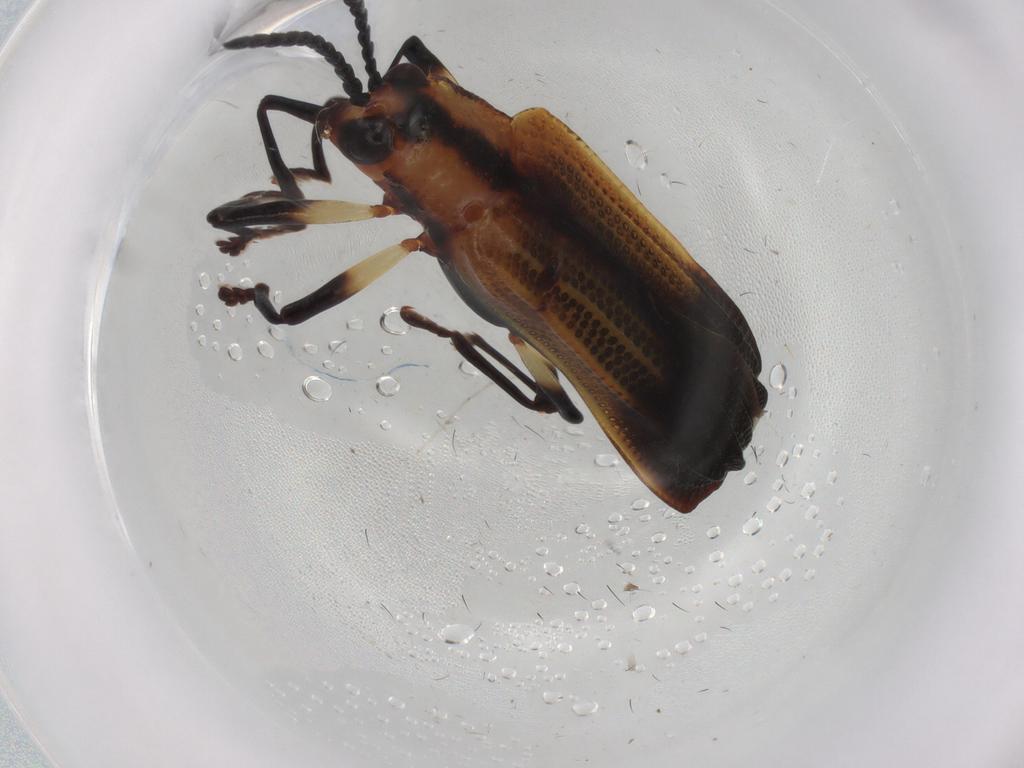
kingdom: Animalia
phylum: Arthropoda
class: Insecta
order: Coleoptera
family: Chrysomelidae
